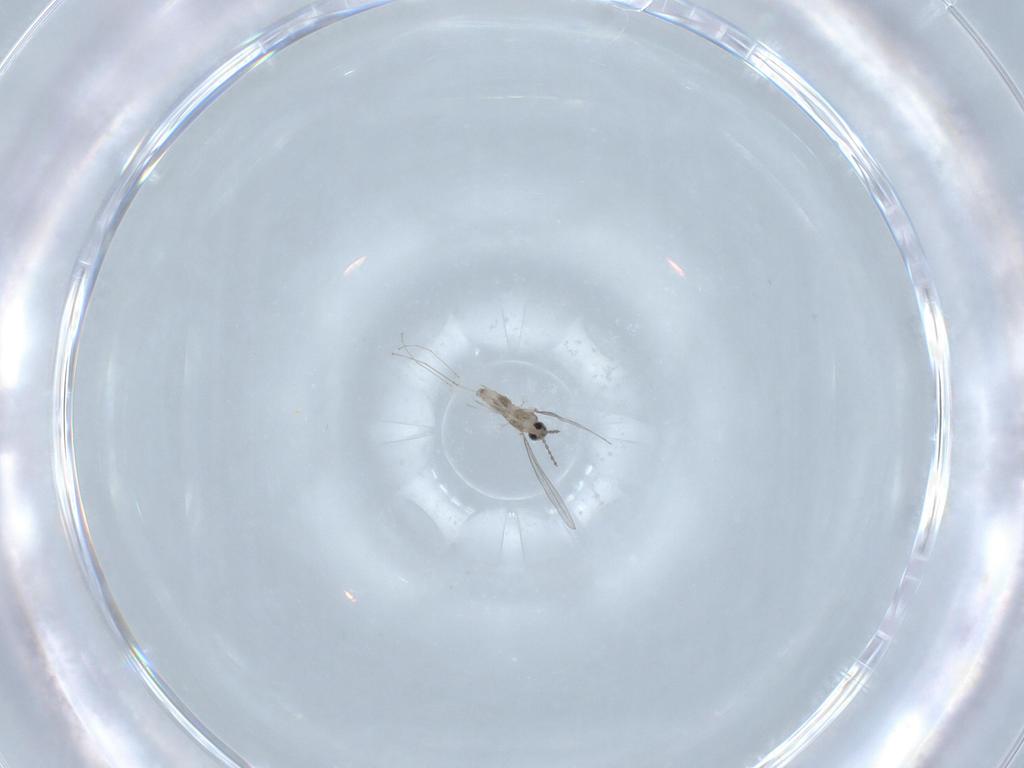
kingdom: Animalia
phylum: Arthropoda
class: Insecta
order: Diptera
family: Cecidomyiidae
